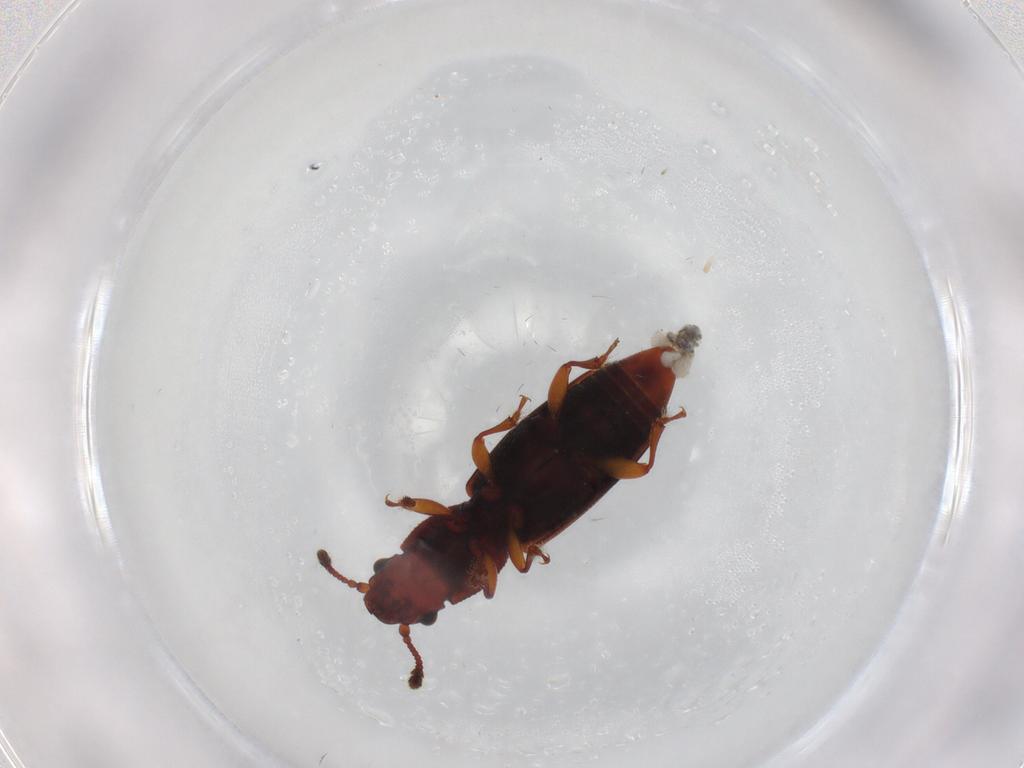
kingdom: Animalia
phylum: Arthropoda
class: Insecta
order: Coleoptera
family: Monotomidae
